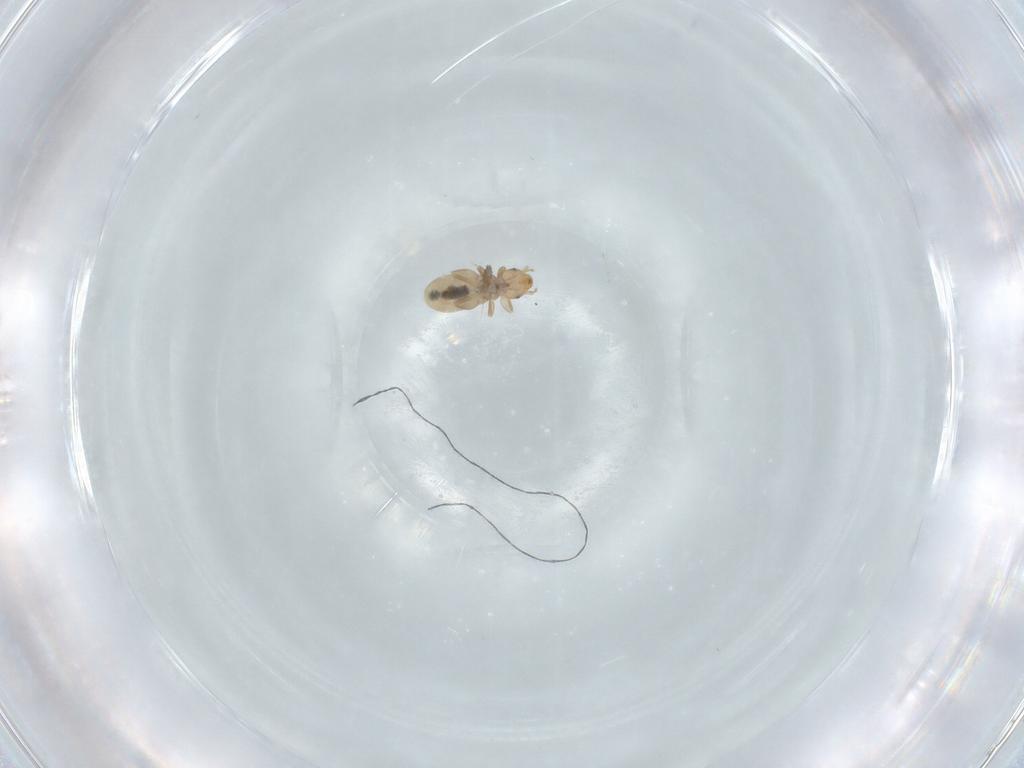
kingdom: Animalia
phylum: Arthropoda
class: Insecta
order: Psocodea
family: Liposcelididae
